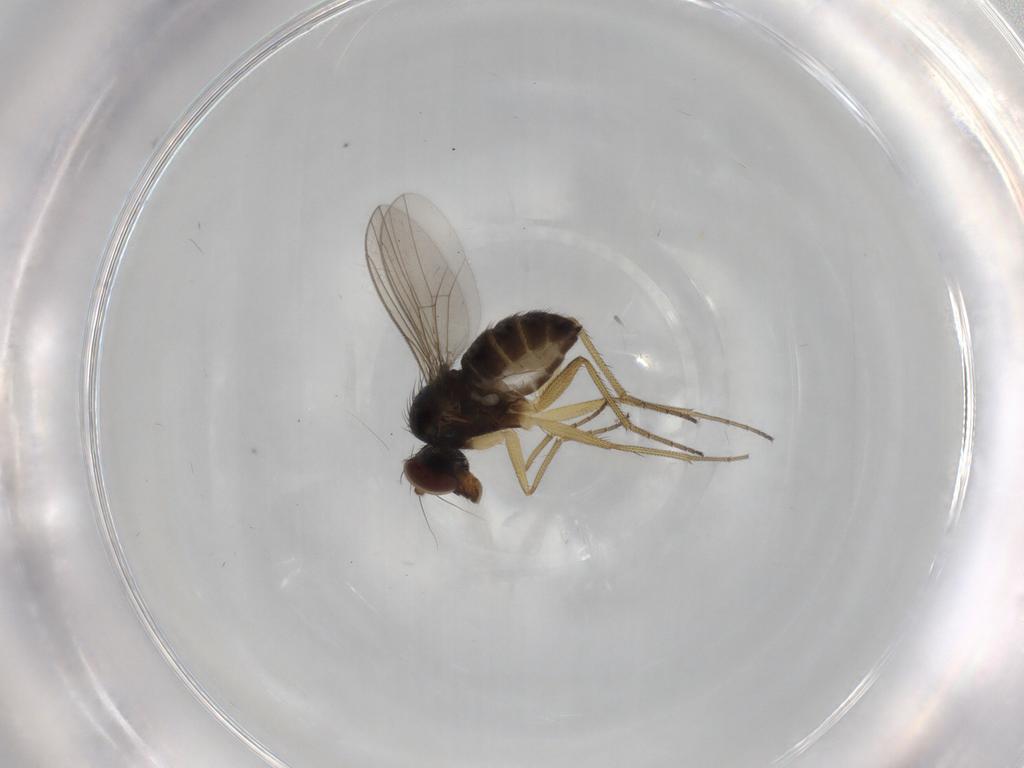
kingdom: Animalia
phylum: Arthropoda
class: Insecta
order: Diptera
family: Dolichopodidae
